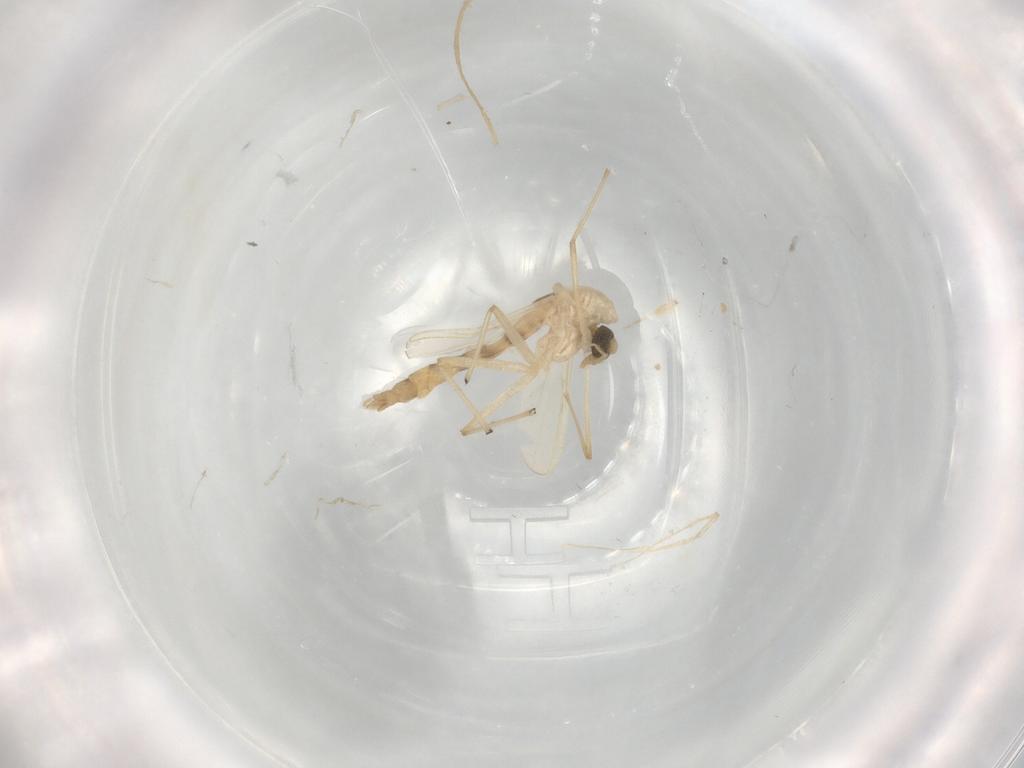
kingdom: Animalia
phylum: Arthropoda
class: Insecta
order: Diptera
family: Chironomidae
